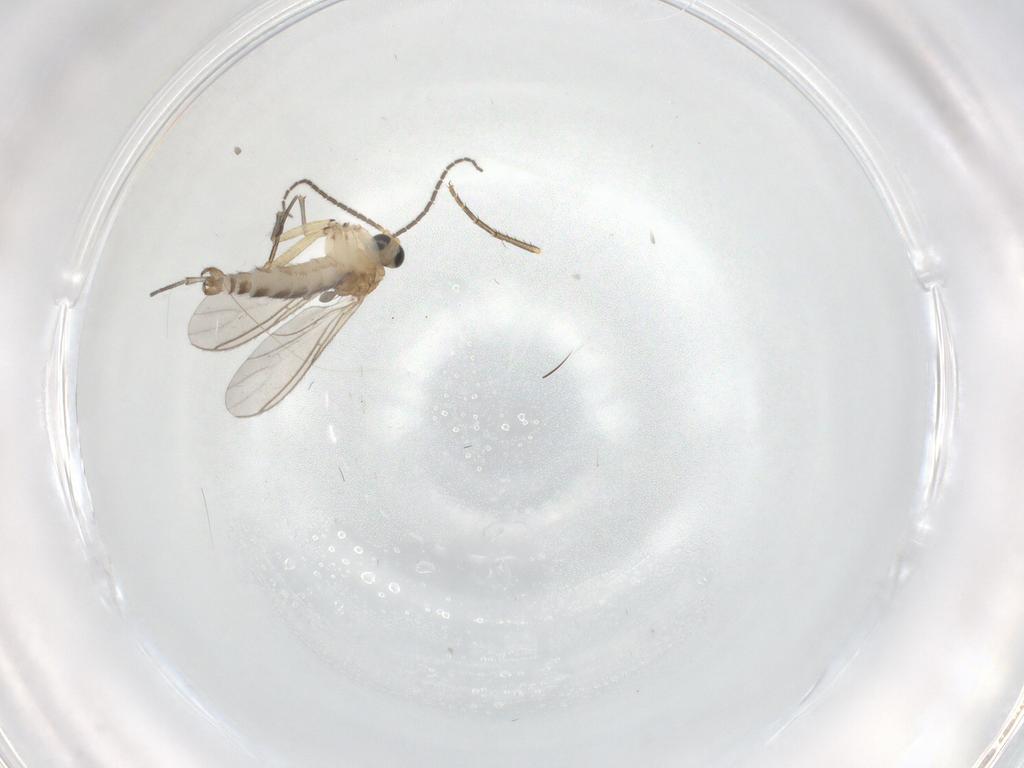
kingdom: Animalia
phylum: Arthropoda
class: Insecta
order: Diptera
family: Phoridae
